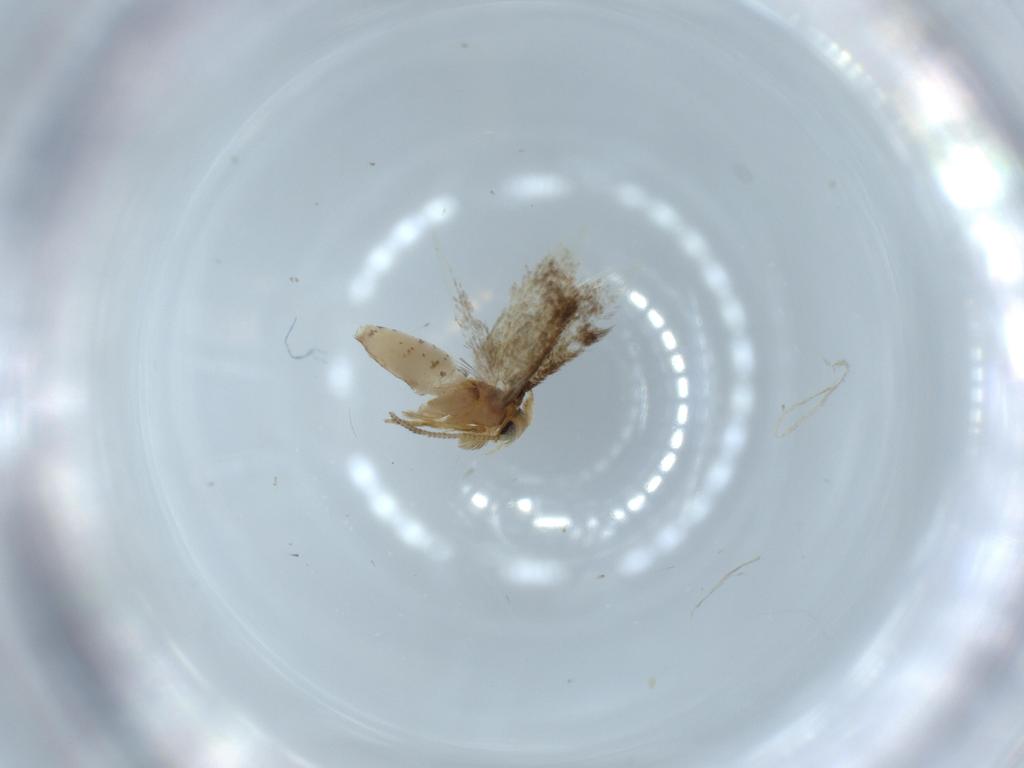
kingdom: Animalia
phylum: Arthropoda
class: Insecta
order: Lepidoptera
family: Nepticulidae
